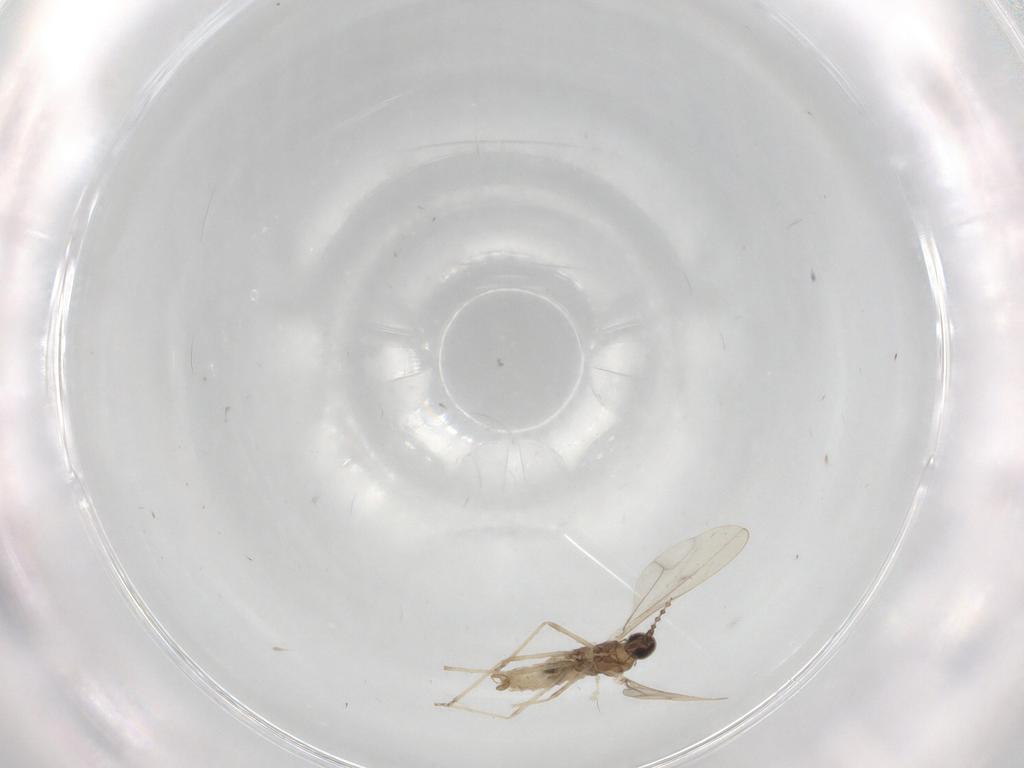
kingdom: Animalia
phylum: Arthropoda
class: Insecta
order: Diptera
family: Cecidomyiidae
